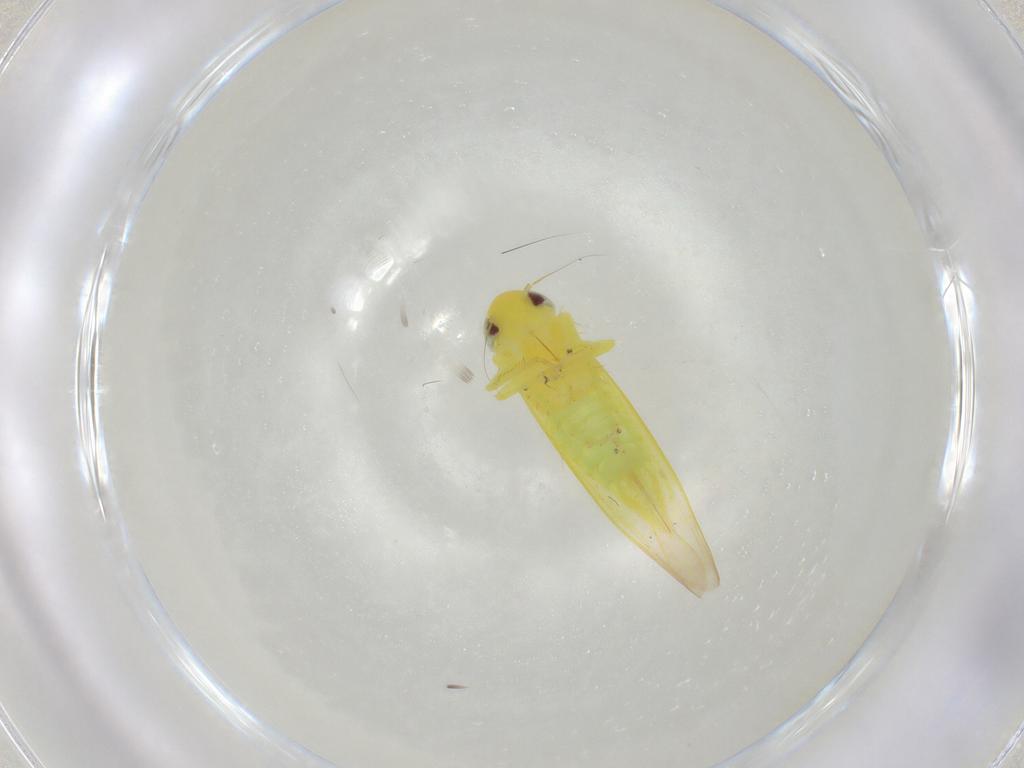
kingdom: Animalia
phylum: Arthropoda
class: Insecta
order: Hemiptera
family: Cicadellidae
